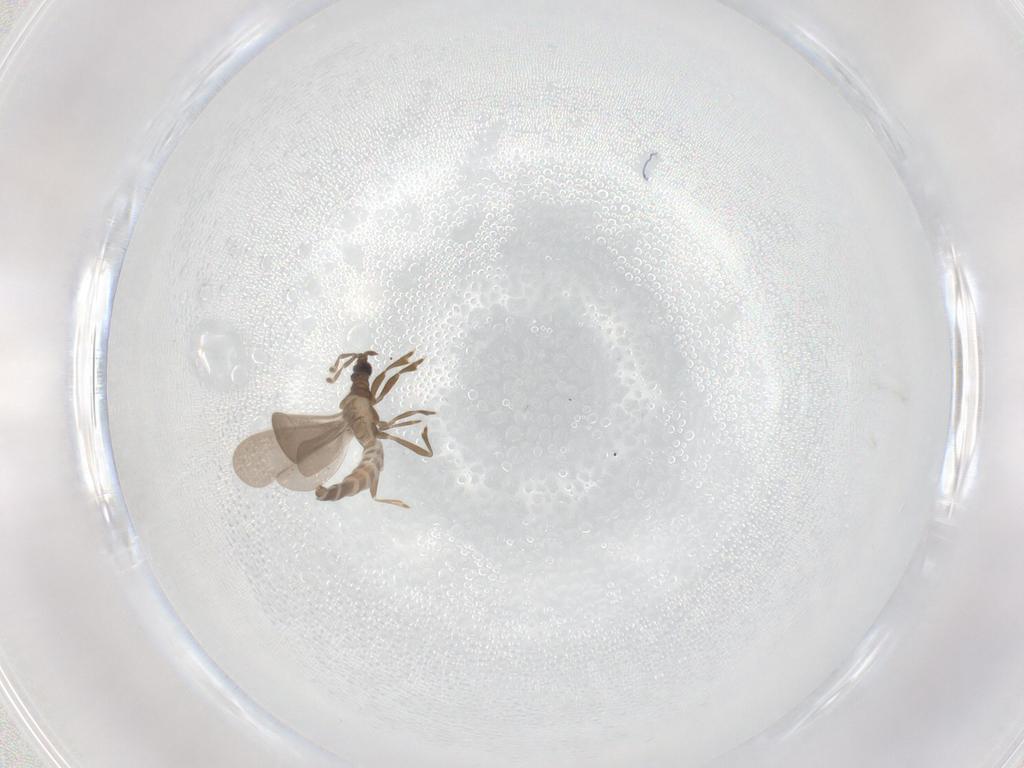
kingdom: Animalia
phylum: Arthropoda
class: Insecta
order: Hemiptera
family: Enicocephalidae
